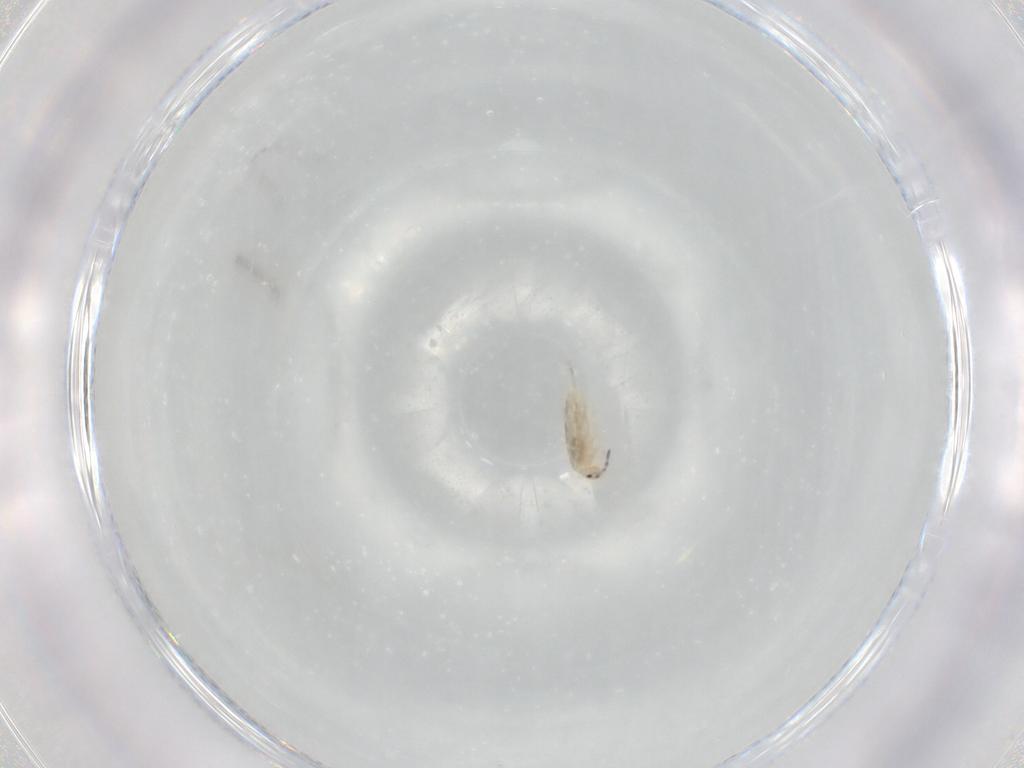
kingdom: Animalia
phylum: Arthropoda
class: Collembola
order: Entomobryomorpha
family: Entomobryidae
